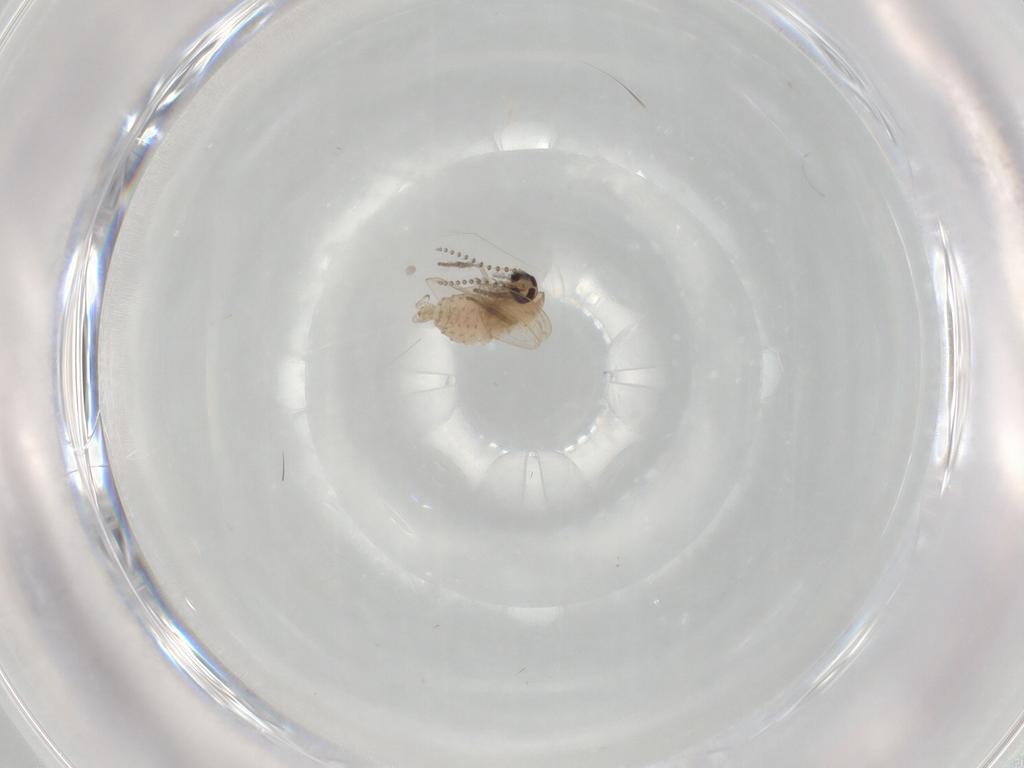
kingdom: Animalia
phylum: Arthropoda
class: Insecta
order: Diptera
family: Psychodidae
